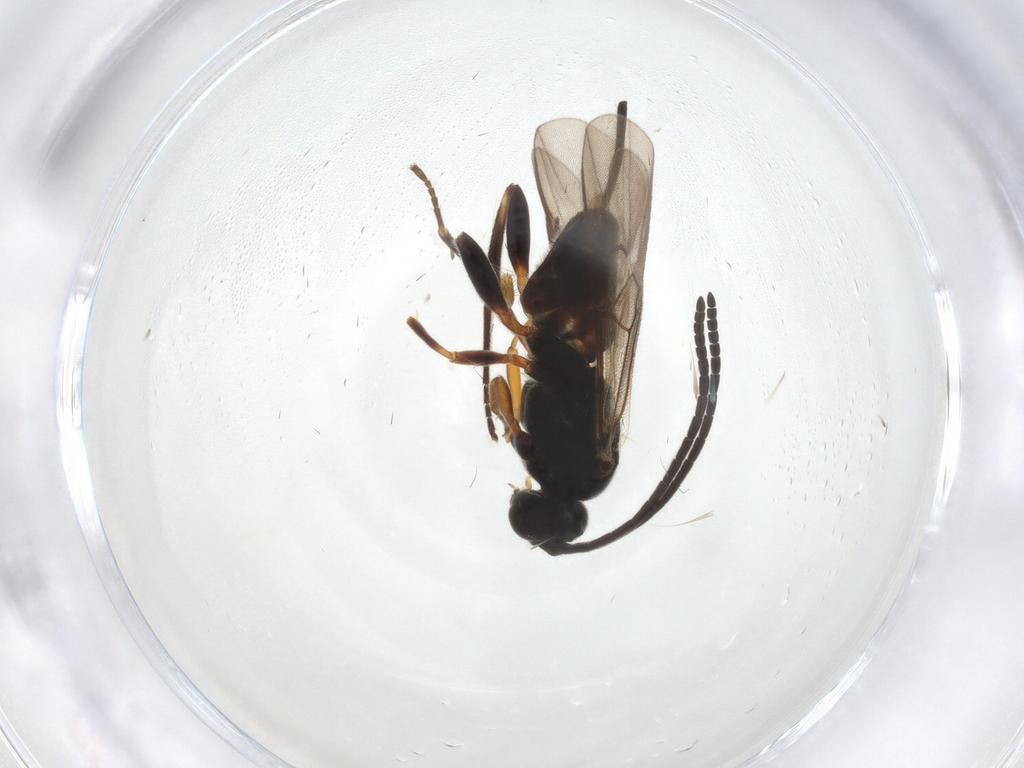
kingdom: Animalia
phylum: Arthropoda
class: Insecta
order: Hymenoptera
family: Braconidae
